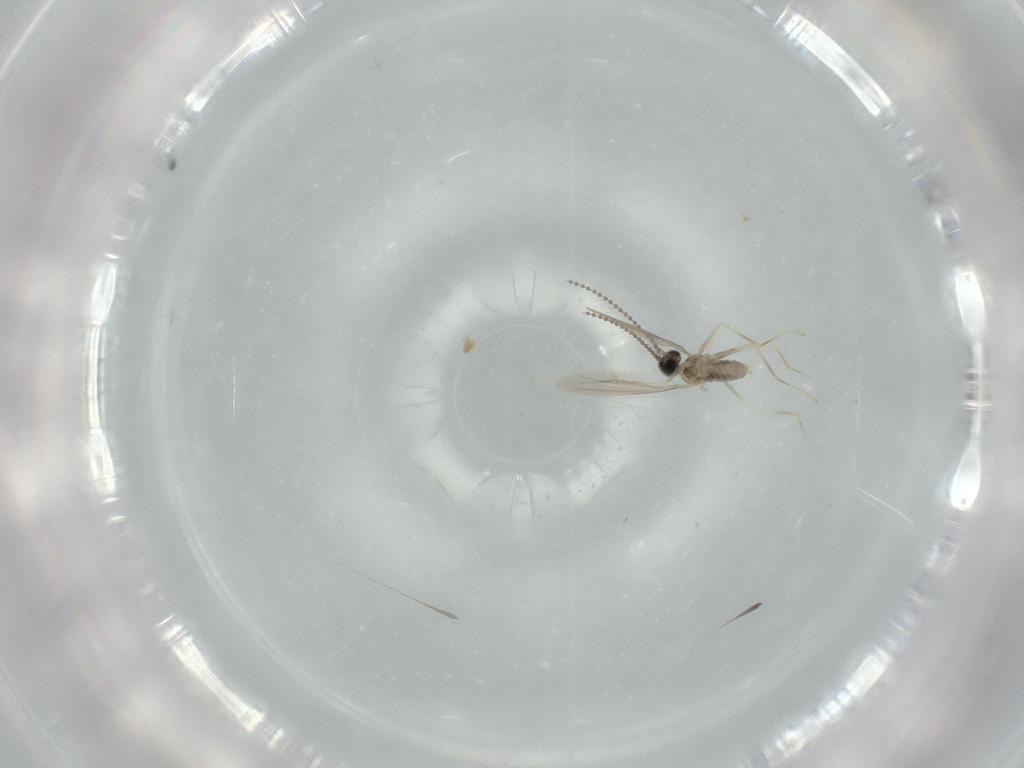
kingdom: Animalia
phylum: Arthropoda
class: Insecta
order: Diptera
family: Cecidomyiidae
